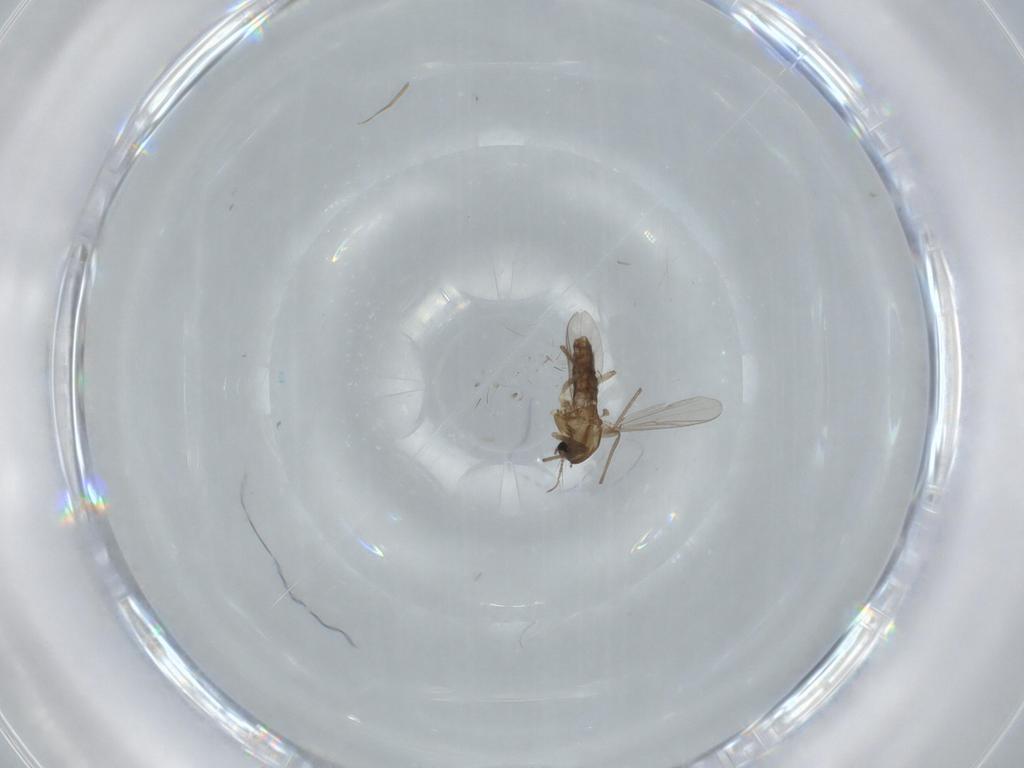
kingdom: Animalia
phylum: Arthropoda
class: Insecta
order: Diptera
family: Chironomidae
